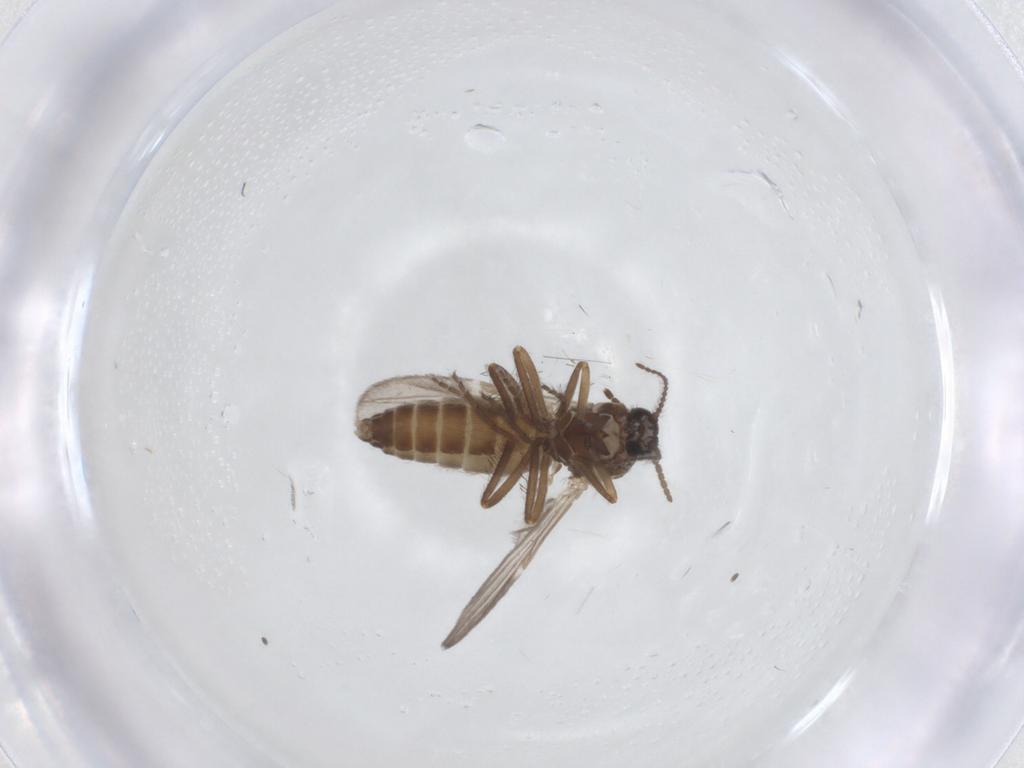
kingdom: Animalia
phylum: Arthropoda
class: Insecta
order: Diptera
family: Ceratopogonidae
